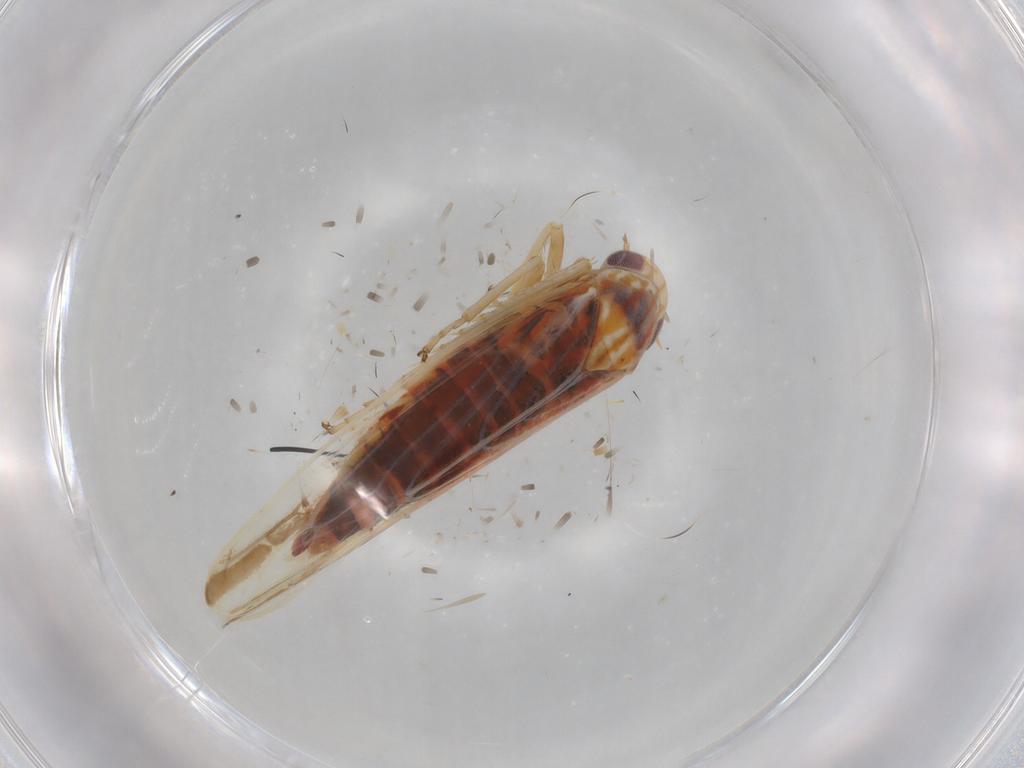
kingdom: Animalia
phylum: Arthropoda
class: Insecta
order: Hemiptera
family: Cicadellidae
